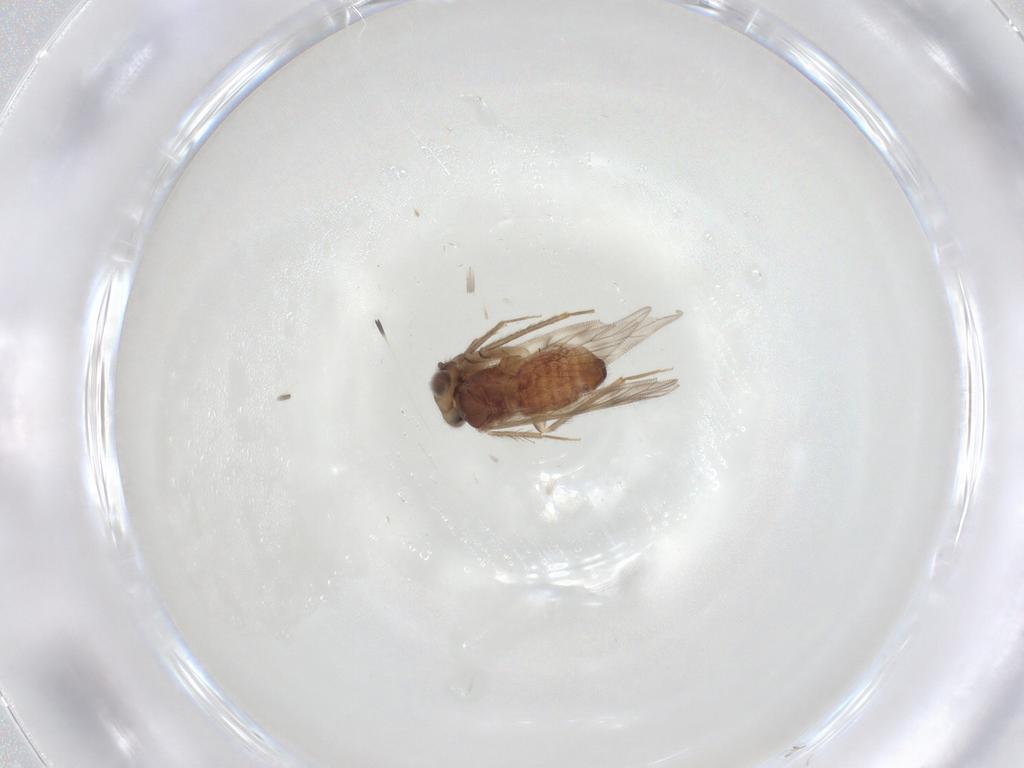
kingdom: Animalia
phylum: Arthropoda
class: Insecta
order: Psocodea
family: Lepidopsocidae
